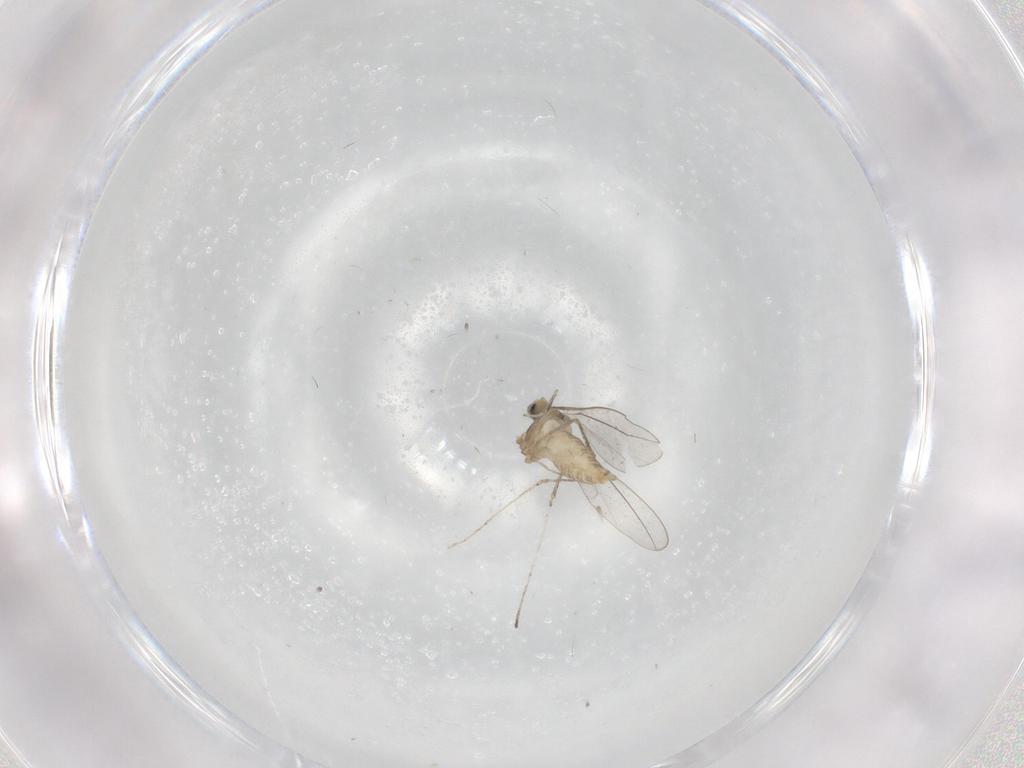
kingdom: Animalia
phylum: Arthropoda
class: Insecta
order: Diptera
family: Cecidomyiidae
